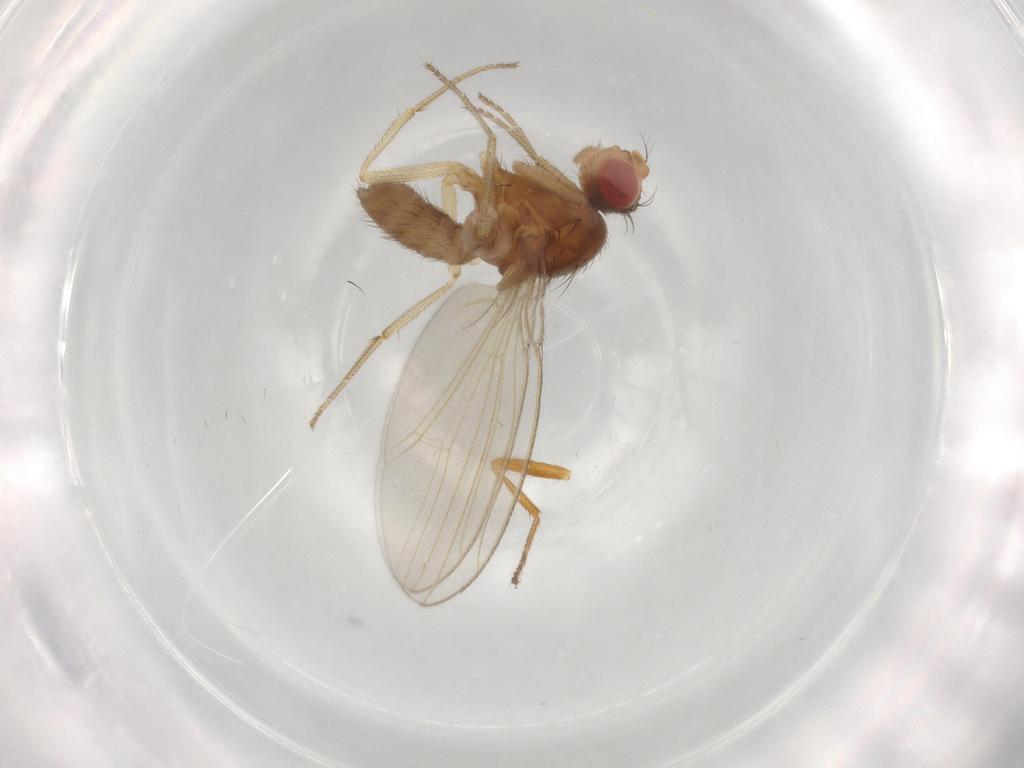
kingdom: Animalia
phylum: Arthropoda
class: Insecta
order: Diptera
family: Drosophilidae
